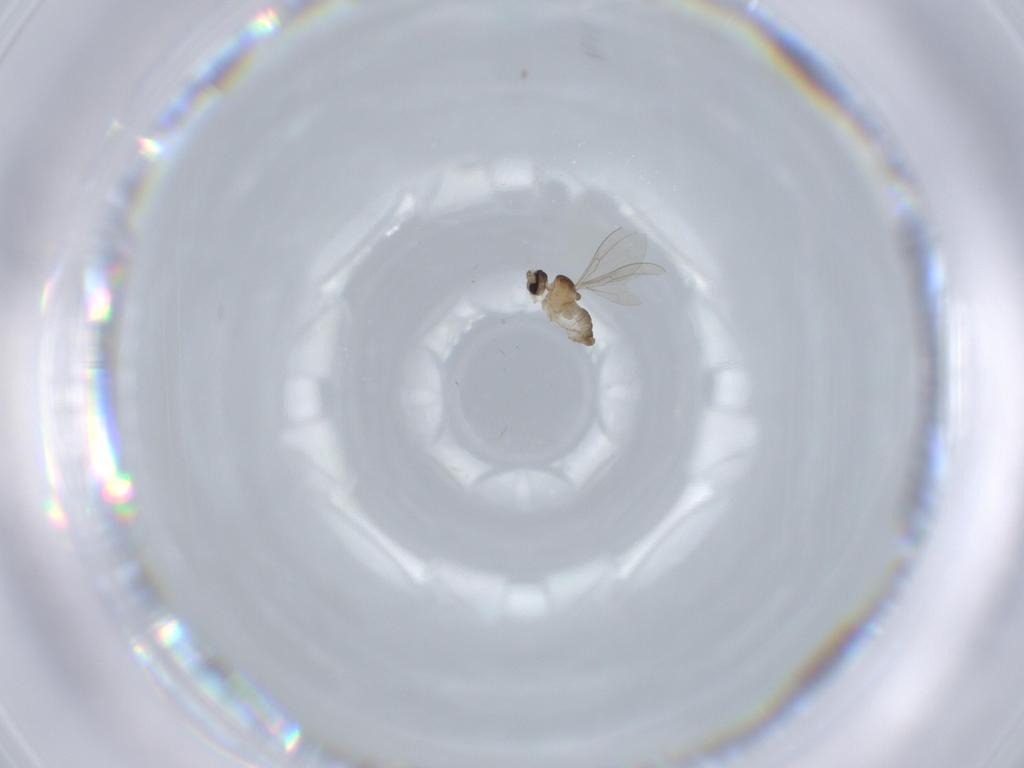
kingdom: Animalia
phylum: Arthropoda
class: Insecta
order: Diptera
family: Cecidomyiidae
